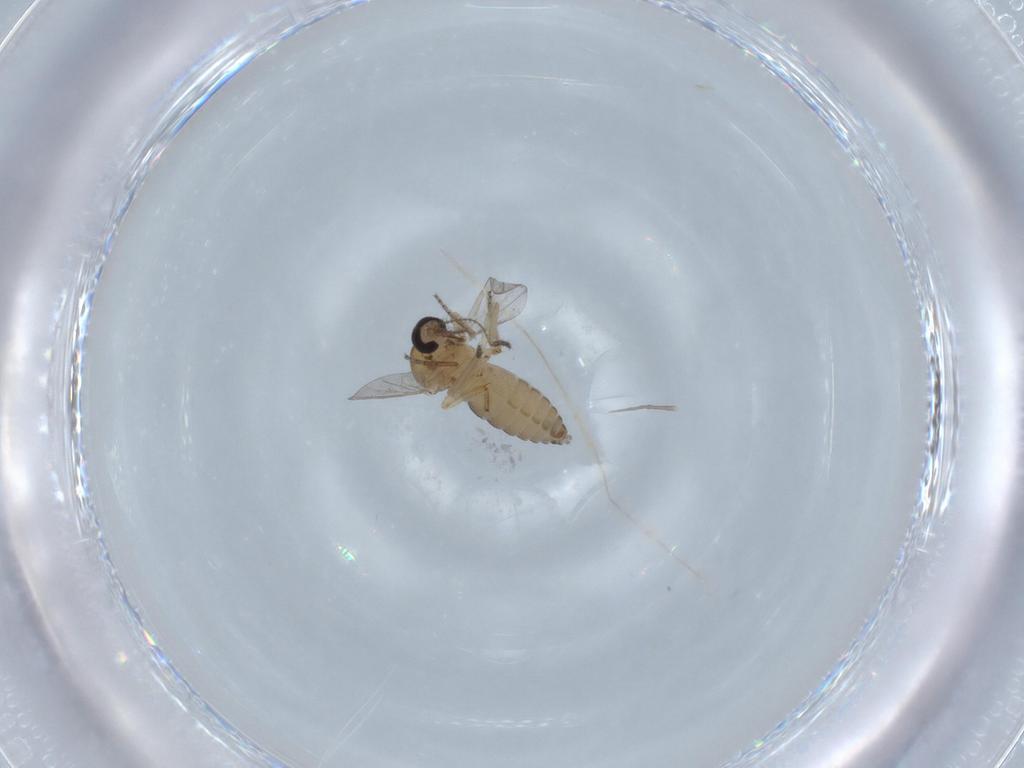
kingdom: Animalia
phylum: Arthropoda
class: Insecta
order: Diptera
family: Ceratopogonidae
